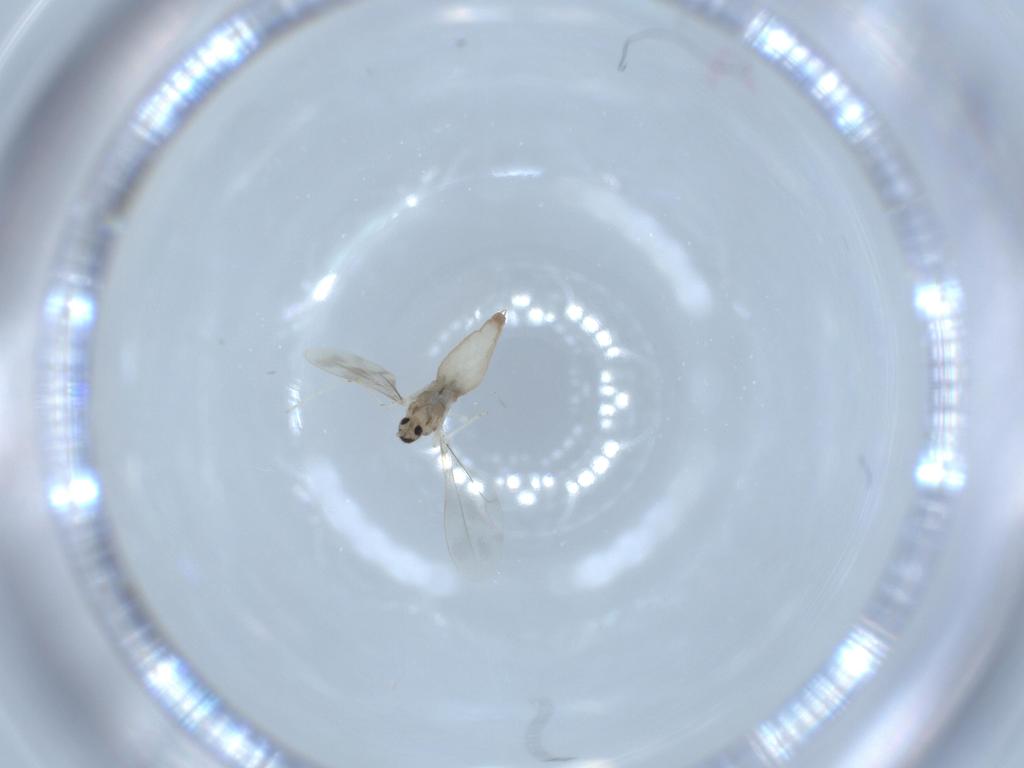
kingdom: Animalia
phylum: Arthropoda
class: Insecta
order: Diptera
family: Cecidomyiidae
